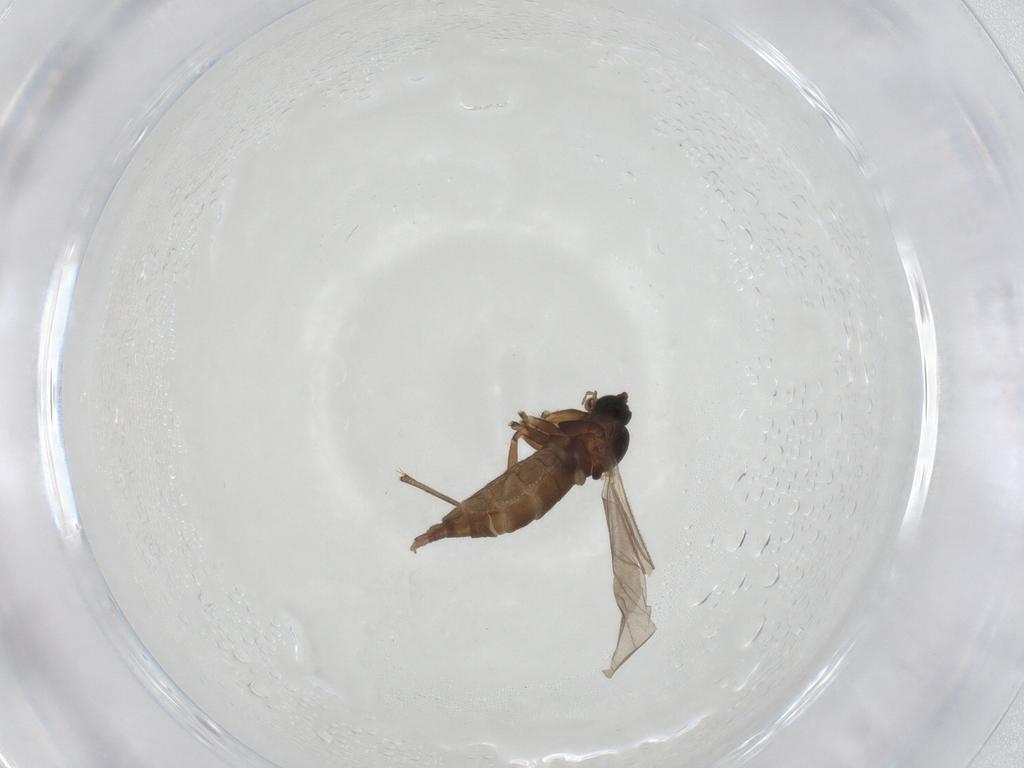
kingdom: Animalia
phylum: Arthropoda
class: Insecta
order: Diptera
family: Sciaridae
